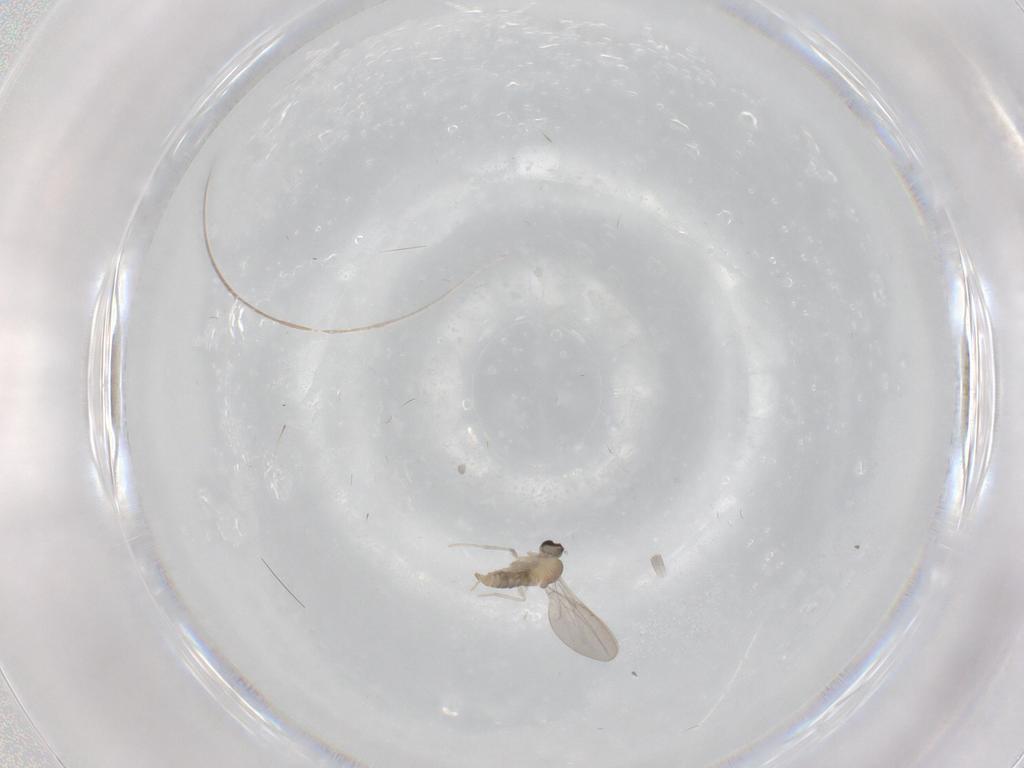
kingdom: Animalia
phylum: Arthropoda
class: Insecta
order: Diptera
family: Phoridae
